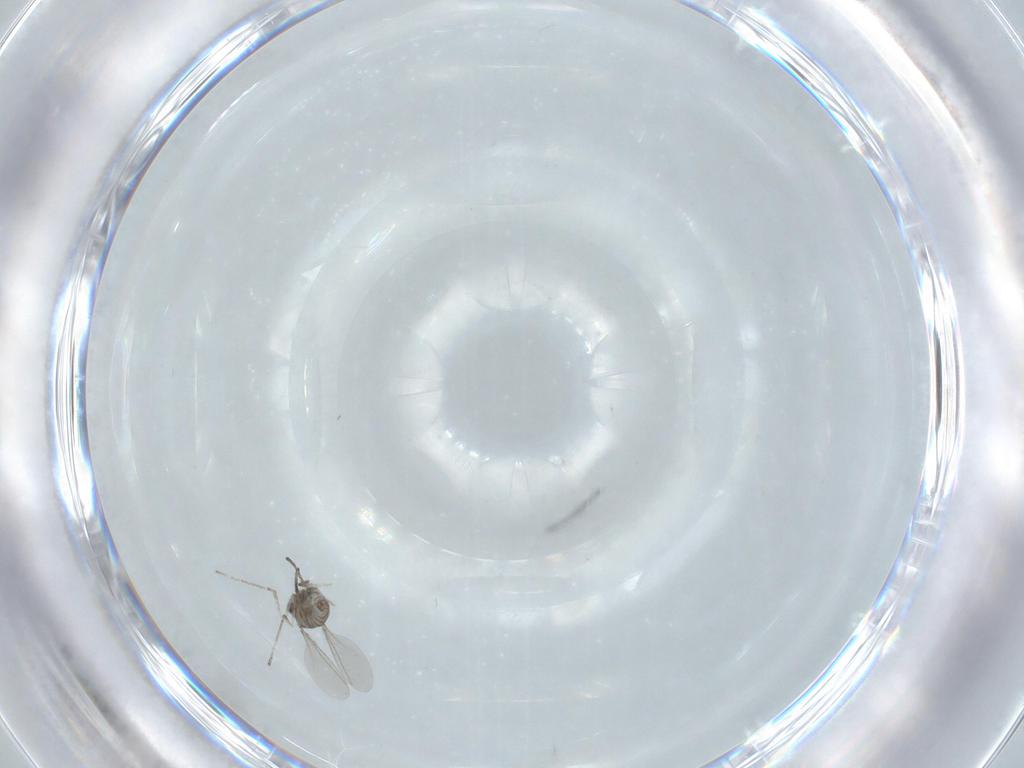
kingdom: Animalia
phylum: Arthropoda
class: Insecta
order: Diptera
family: Cecidomyiidae
